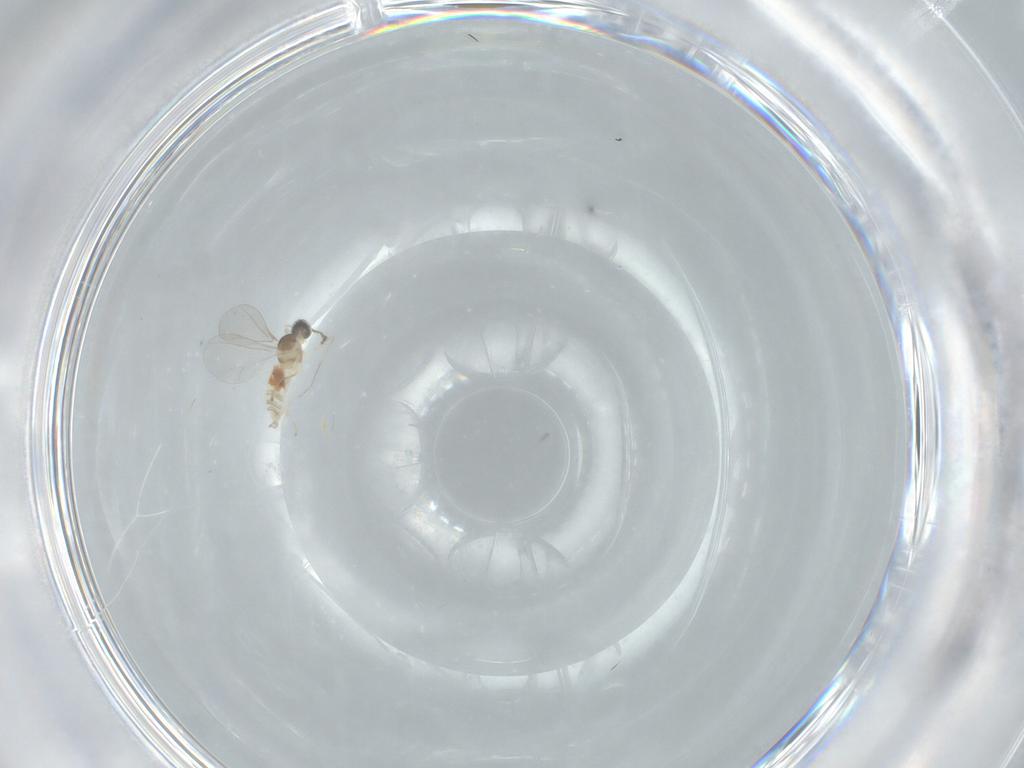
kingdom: Animalia
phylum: Arthropoda
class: Insecta
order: Diptera
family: Cecidomyiidae
